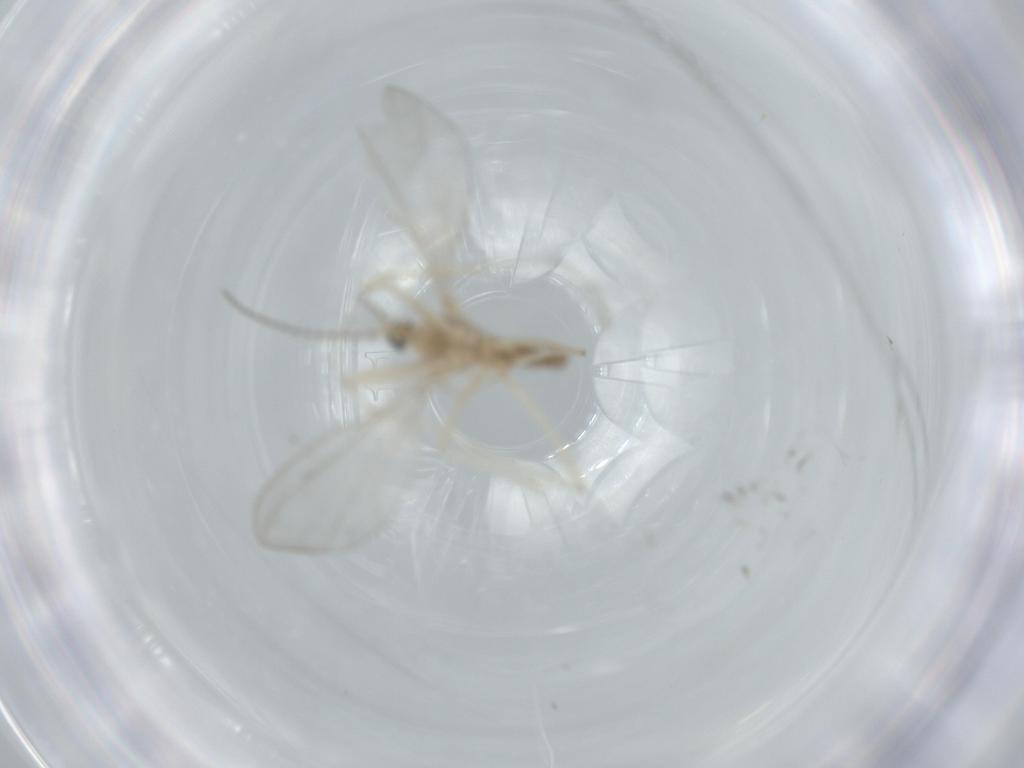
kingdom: Animalia
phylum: Arthropoda
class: Insecta
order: Diptera
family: Cecidomyiidae
